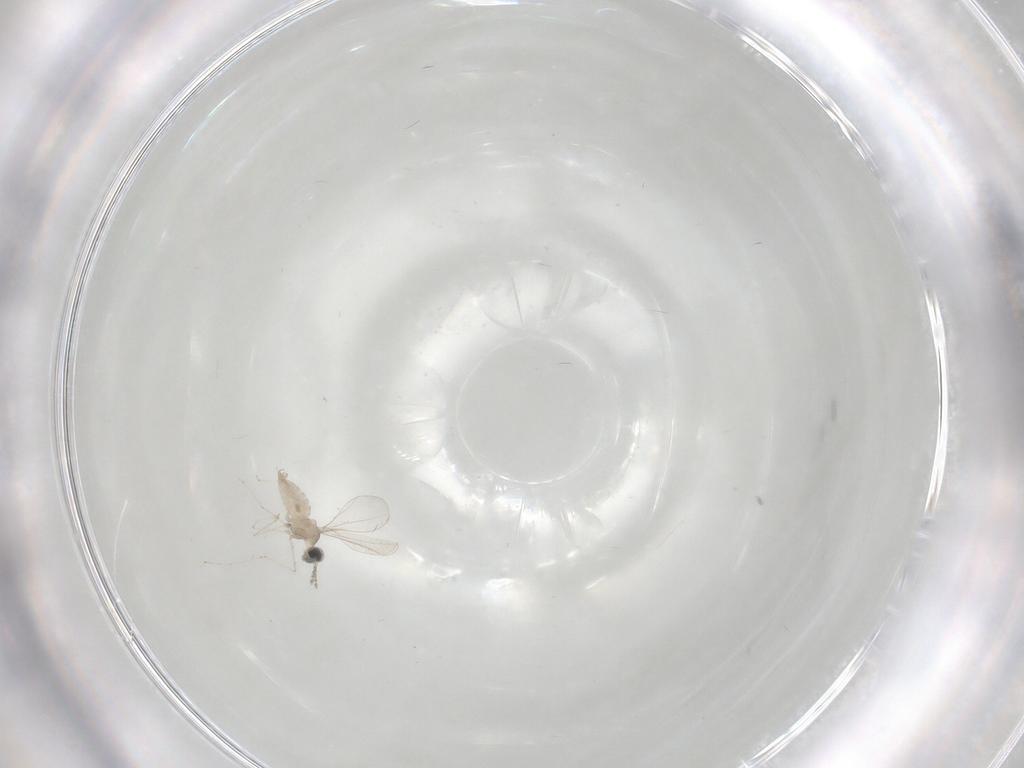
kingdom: Animalia
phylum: Arthropoda
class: Insecta
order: Diptera
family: Cecidomyiidae
